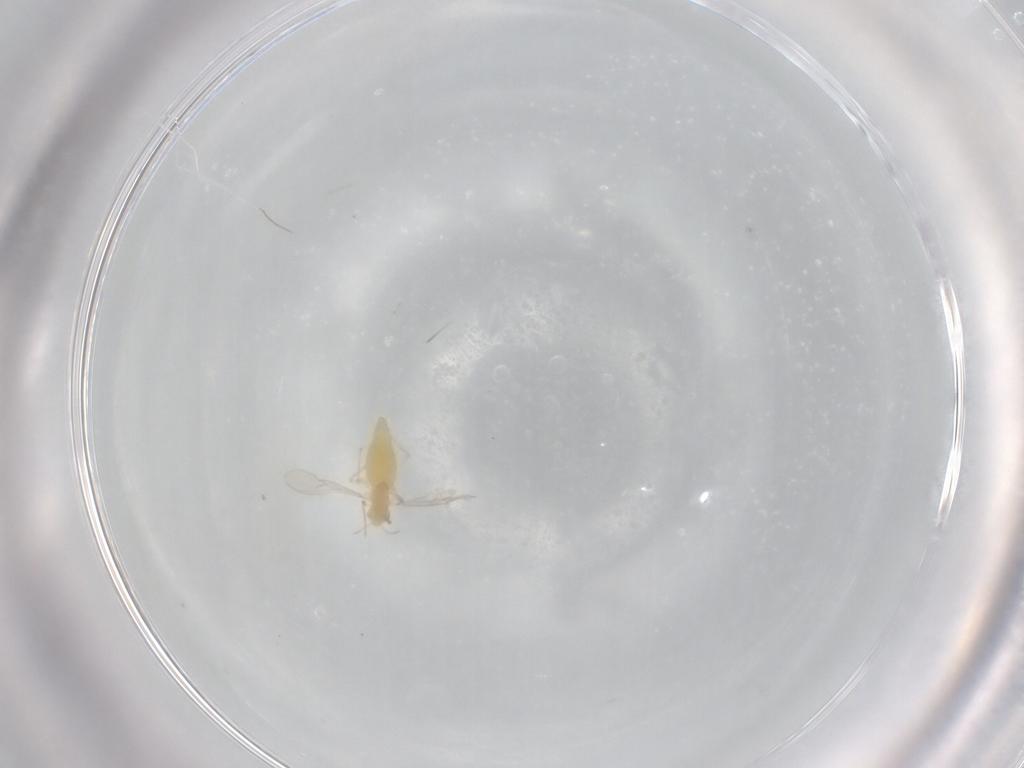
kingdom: Animalia
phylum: Arthropoda
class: Insecta
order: Diptera
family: Chironomidae
